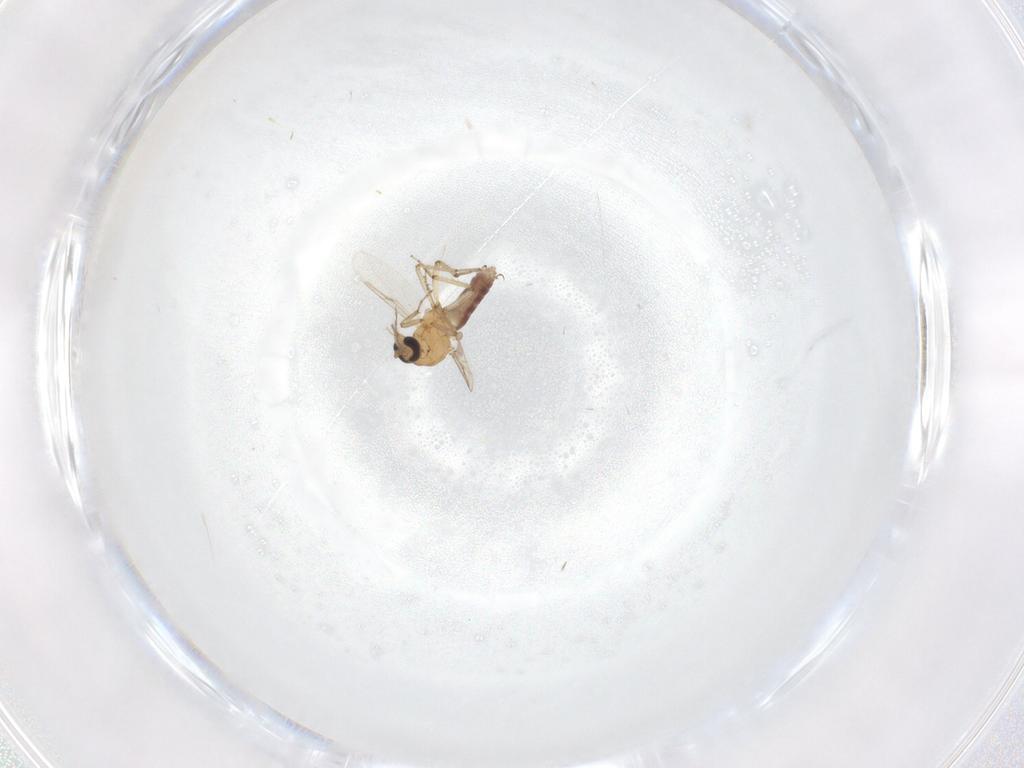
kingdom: Animalia
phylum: Arthropoda
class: Insecta
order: Diptera
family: Ceratopogonidae
